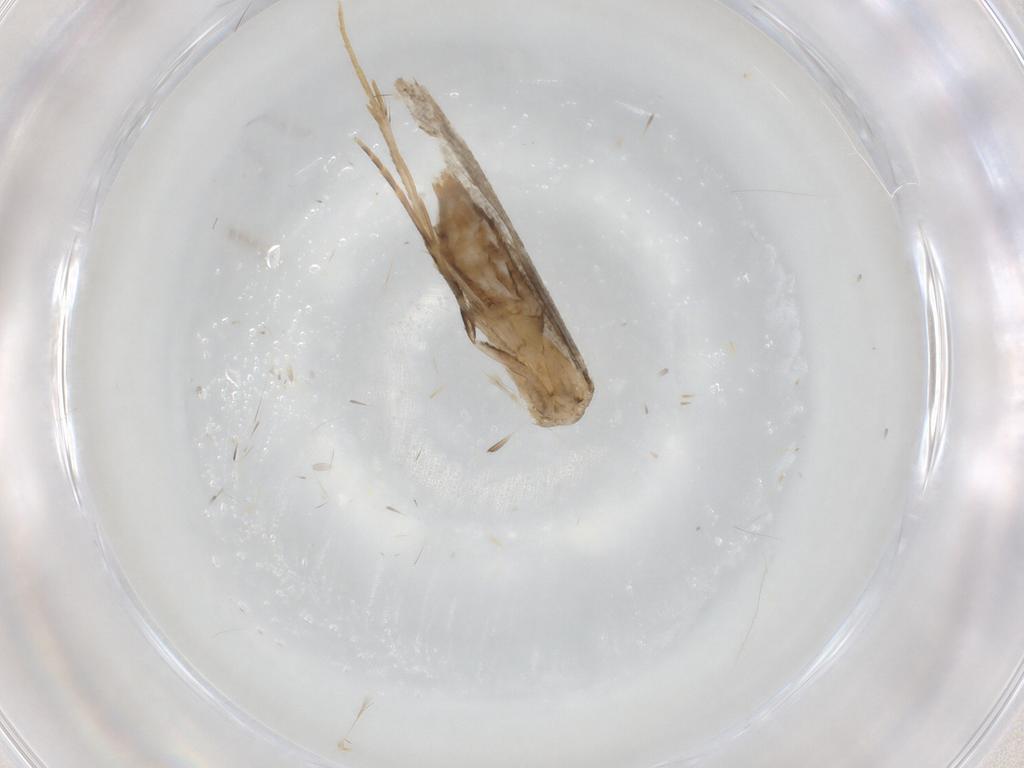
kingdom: Animalia
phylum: Arthropoda
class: Insecta
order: Lepidoptera
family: Tineidae
